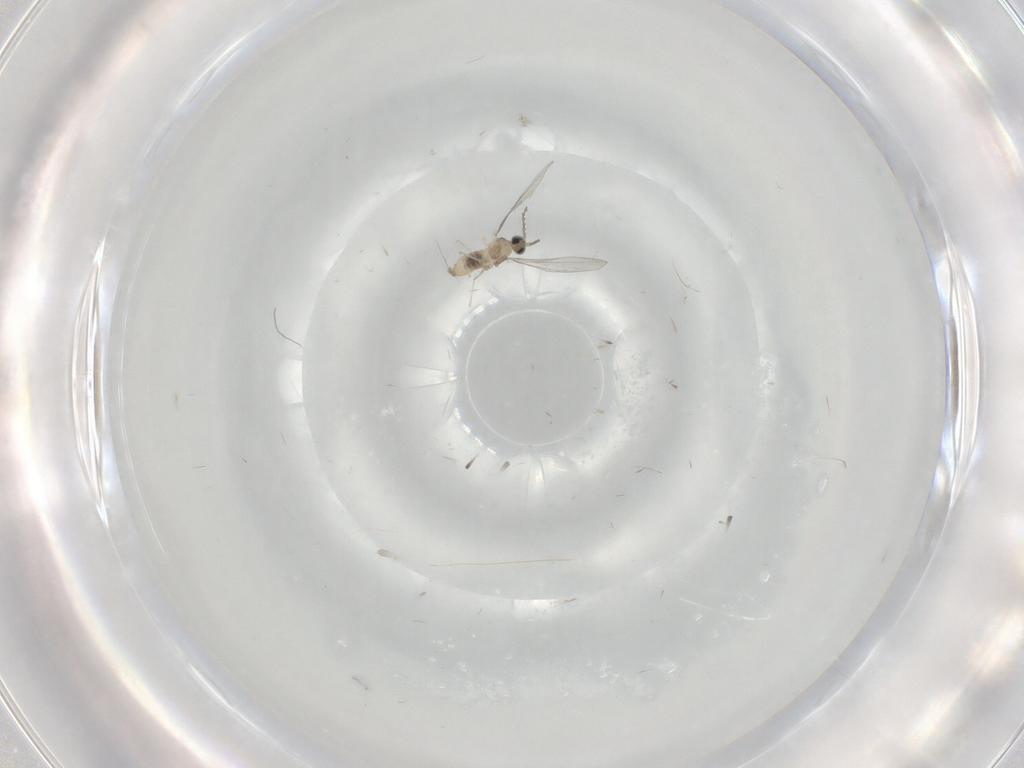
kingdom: Animalia
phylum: Arthropoda
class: Insecta
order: Diptera
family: Cecidomyiidae
